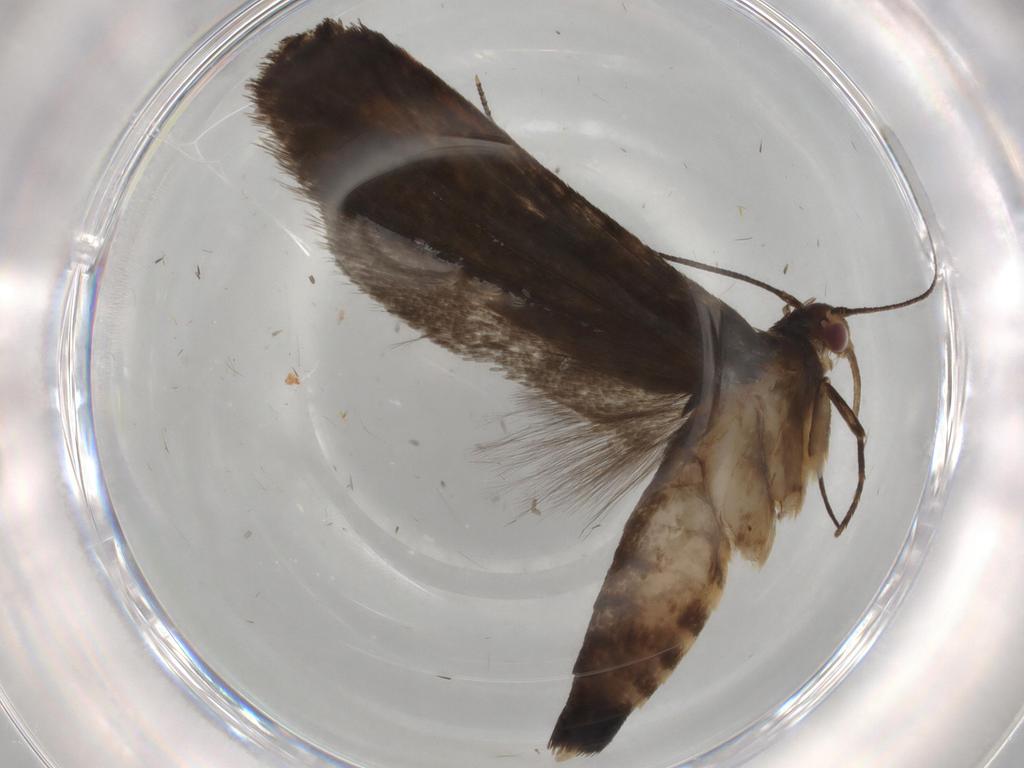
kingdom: Animalia
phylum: Arthropoda
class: Insecta
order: Lepidoptera
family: Gelechiidae
